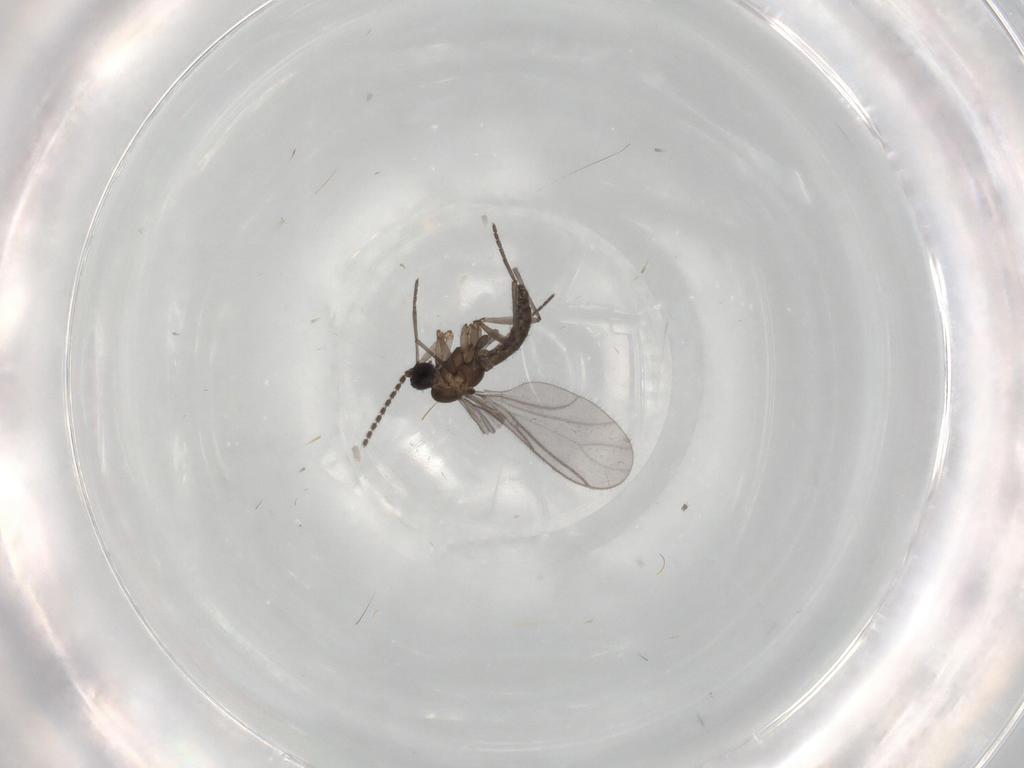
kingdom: Animalia
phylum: Arthropoda
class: Insecta
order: Diptera
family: Sciaridae
